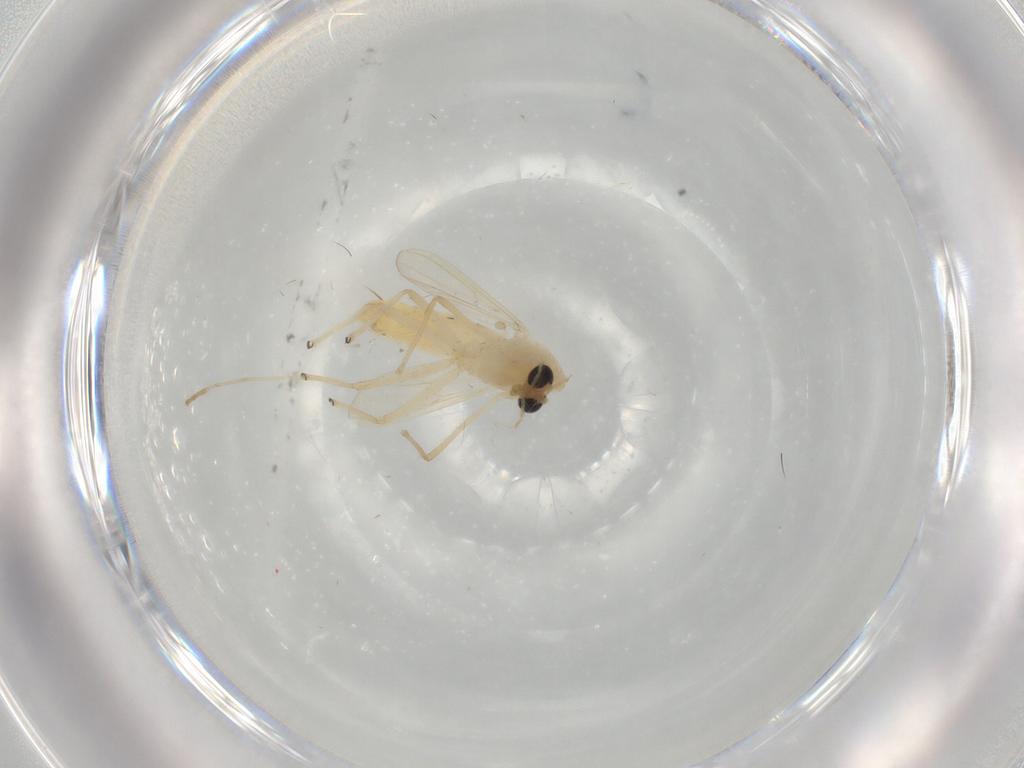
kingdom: Animalia
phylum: Arthropoda
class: Insecta
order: Diptera
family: Chironomidae
